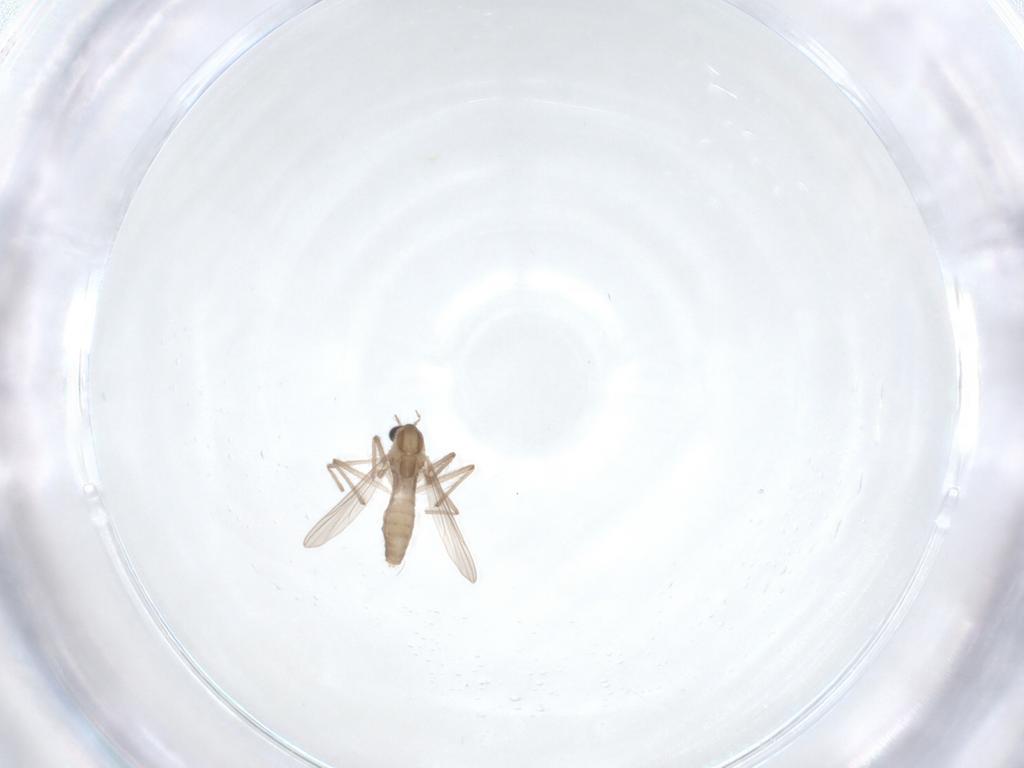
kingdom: Animalia
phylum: Arthropoda
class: Insecta
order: Diptera
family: Chironomidae
